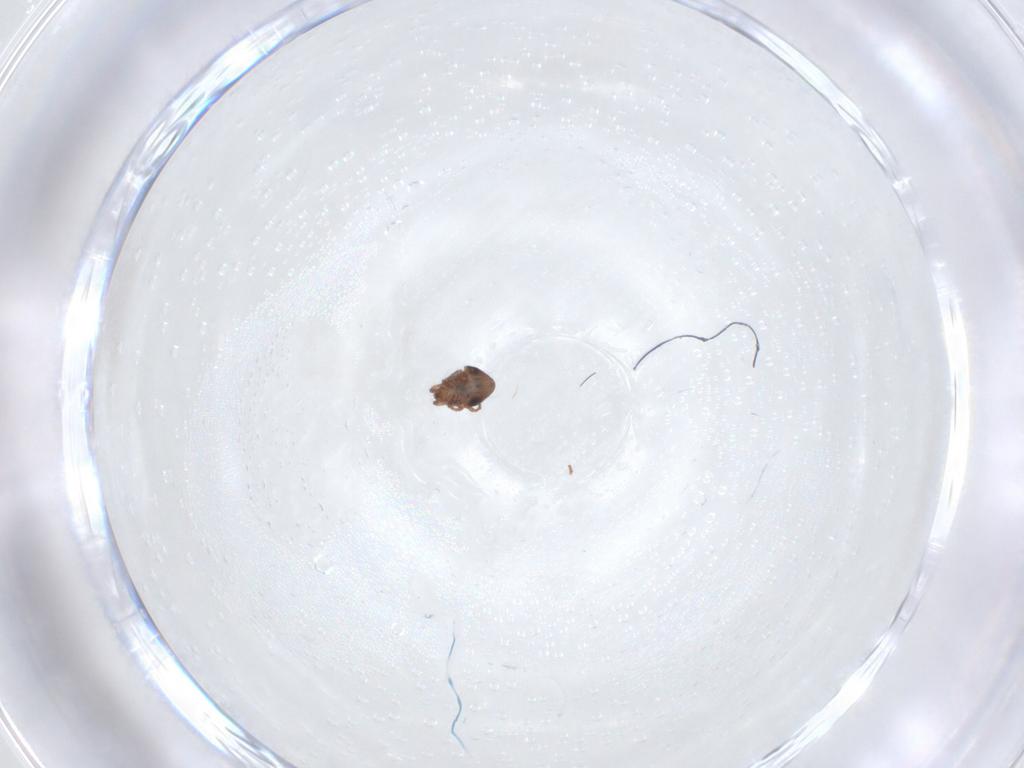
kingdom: Animalia
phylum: Arthropoda
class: Arachnida
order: Sarcoptiformes
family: Ceratozetidae
